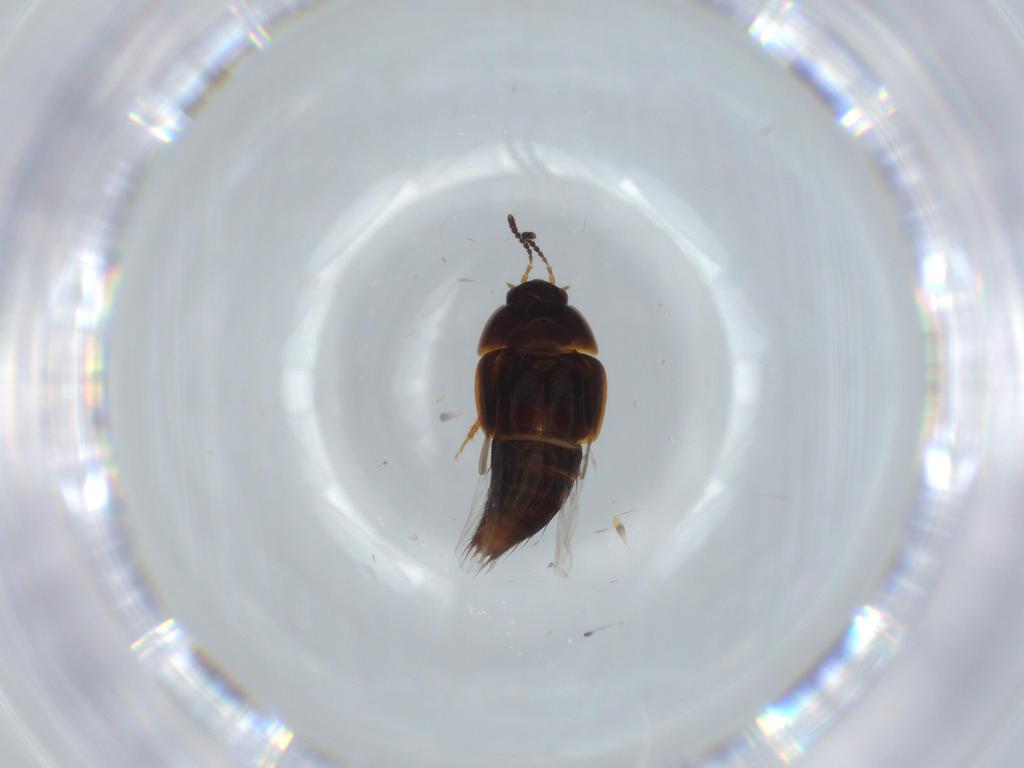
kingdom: Animalia
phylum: Arthropoda
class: Insecta
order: Coleoptera
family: Staphylinidae
